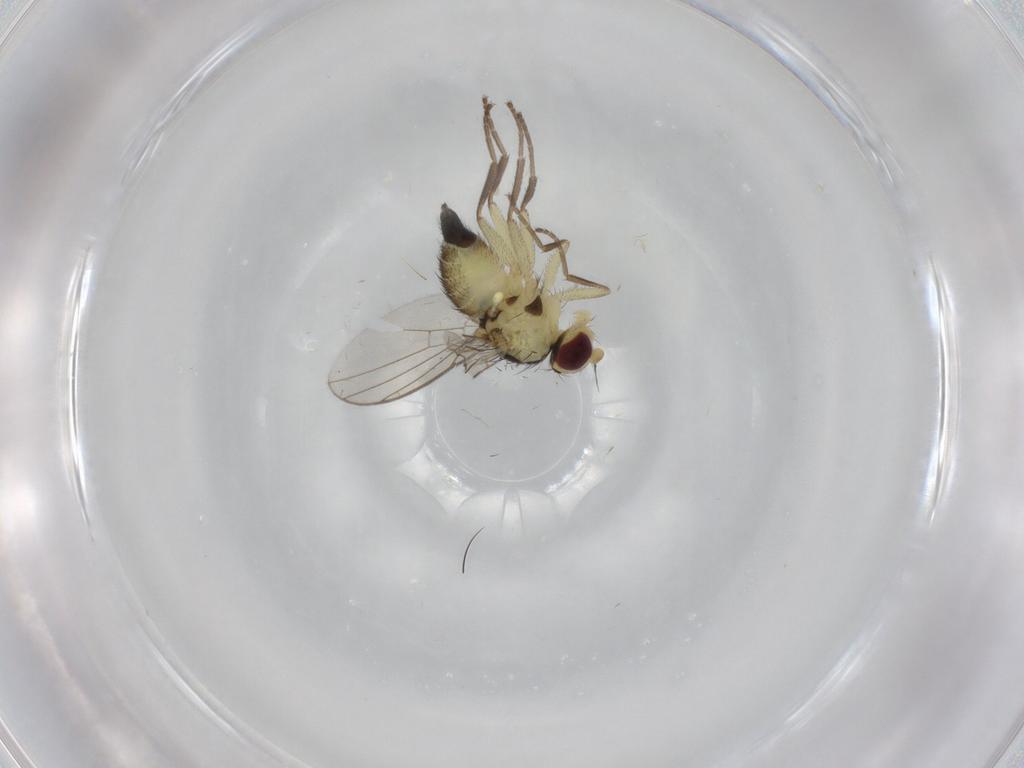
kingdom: Animalia
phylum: Arthropoda
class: Insecta
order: Diptera
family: Agromyzidae
